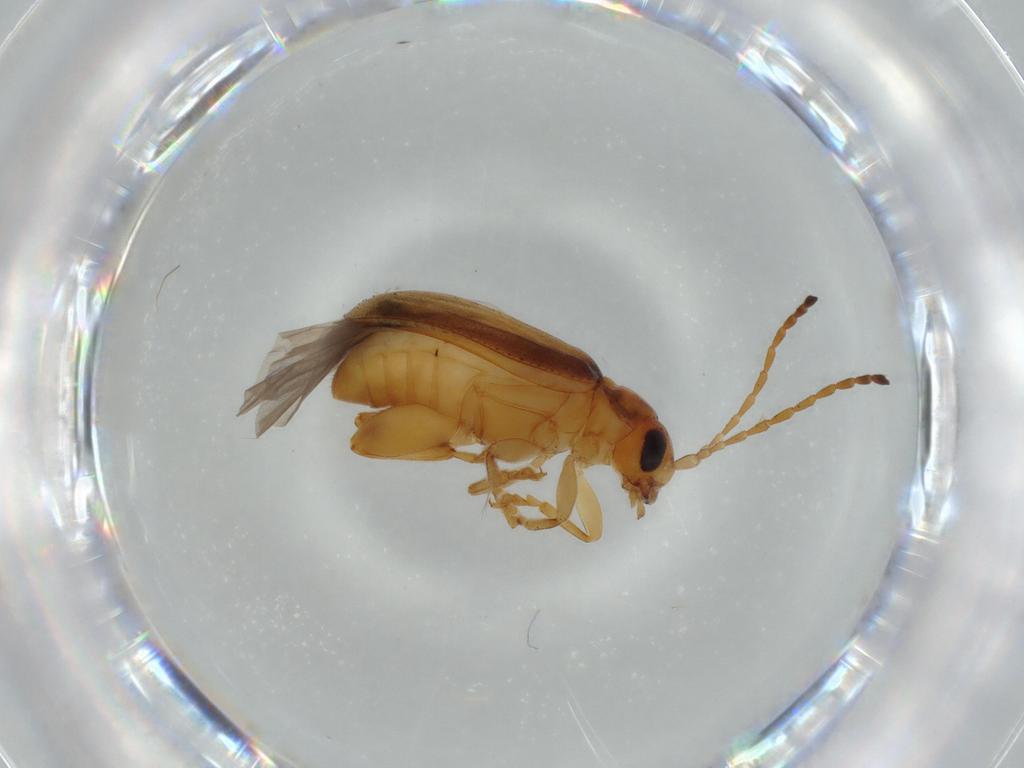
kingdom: Animalia
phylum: Arthropoda
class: Insecta
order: Coleoptera
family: Chrysomelidae
